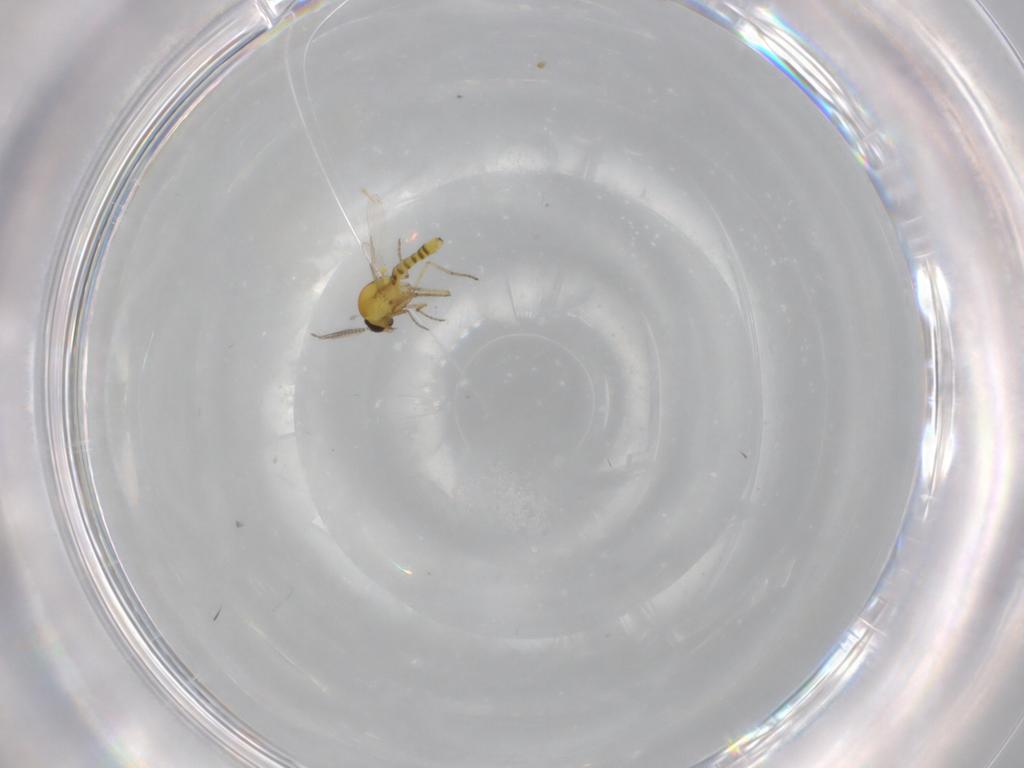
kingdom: Animalia
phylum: Arthropoda
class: Insecta
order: Diptera
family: Ceratopogonidae
